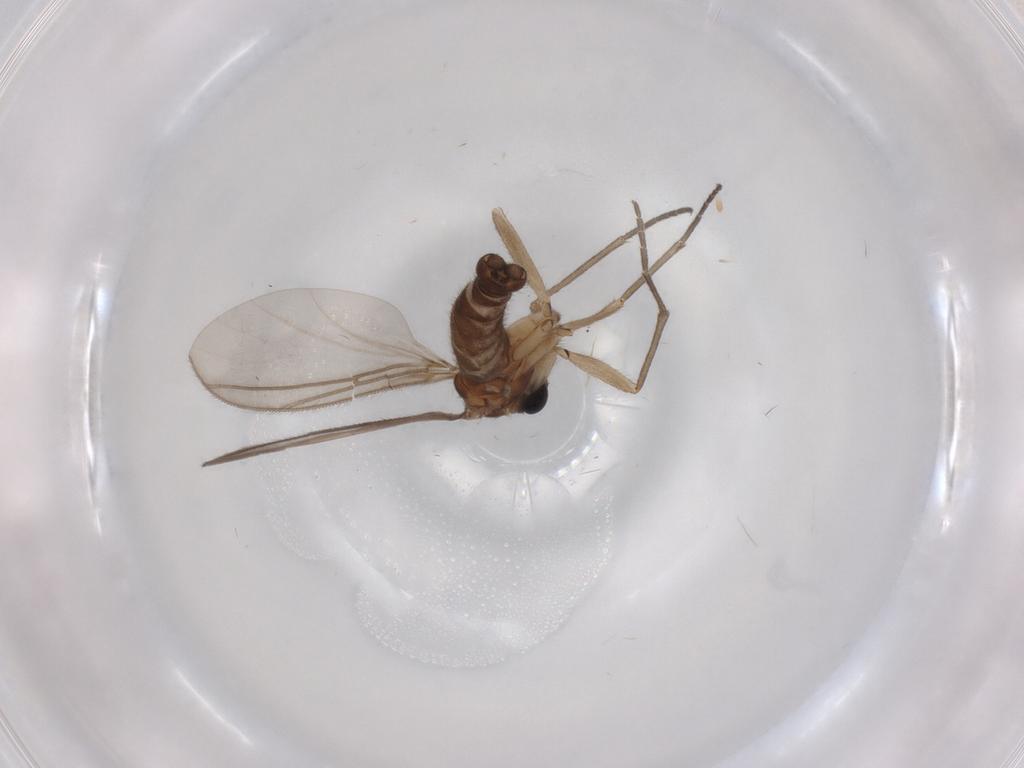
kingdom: Animalia
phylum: Arthropoda
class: Insecta
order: Diptera
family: Sciaridae
